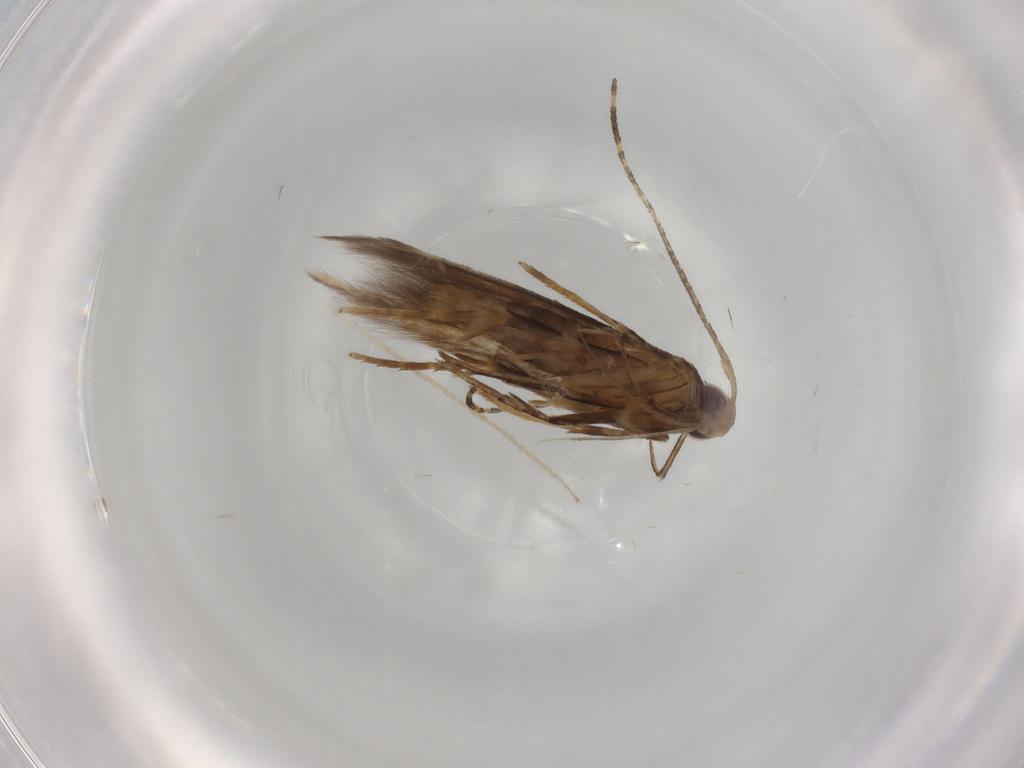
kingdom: Animalia
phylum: Arthropoda
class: Insecta
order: Lepidoptera
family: Cosmopterigidae
